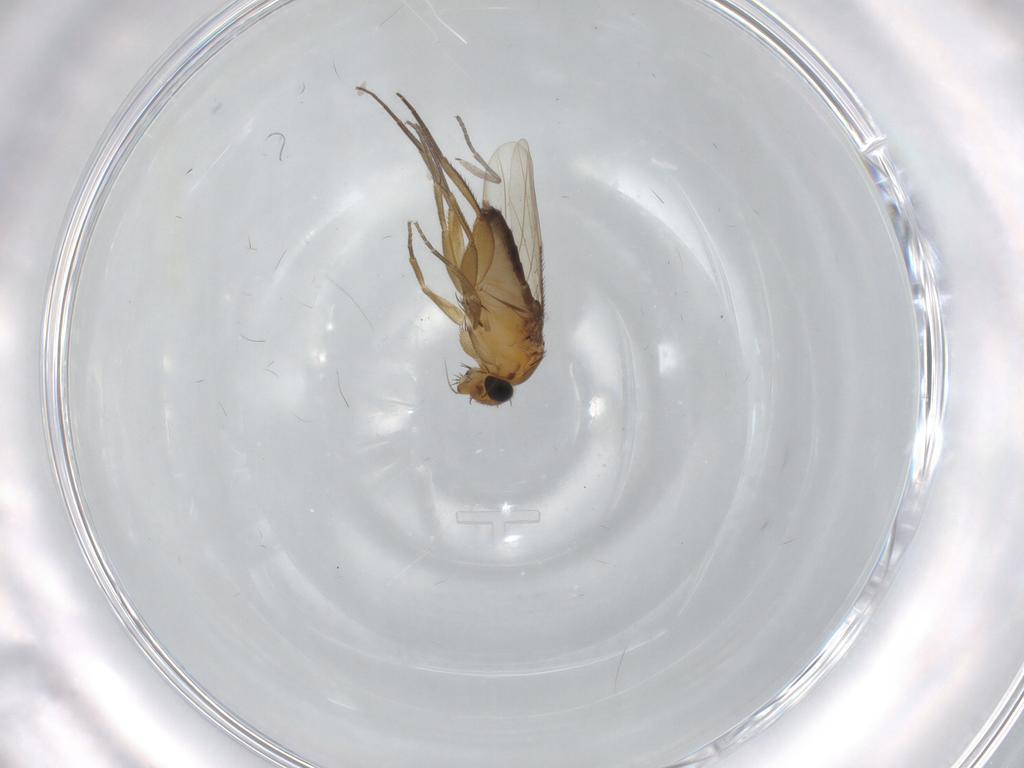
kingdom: Animalia
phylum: Arthropoda
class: Insecta
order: Diptera
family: Phoridae
